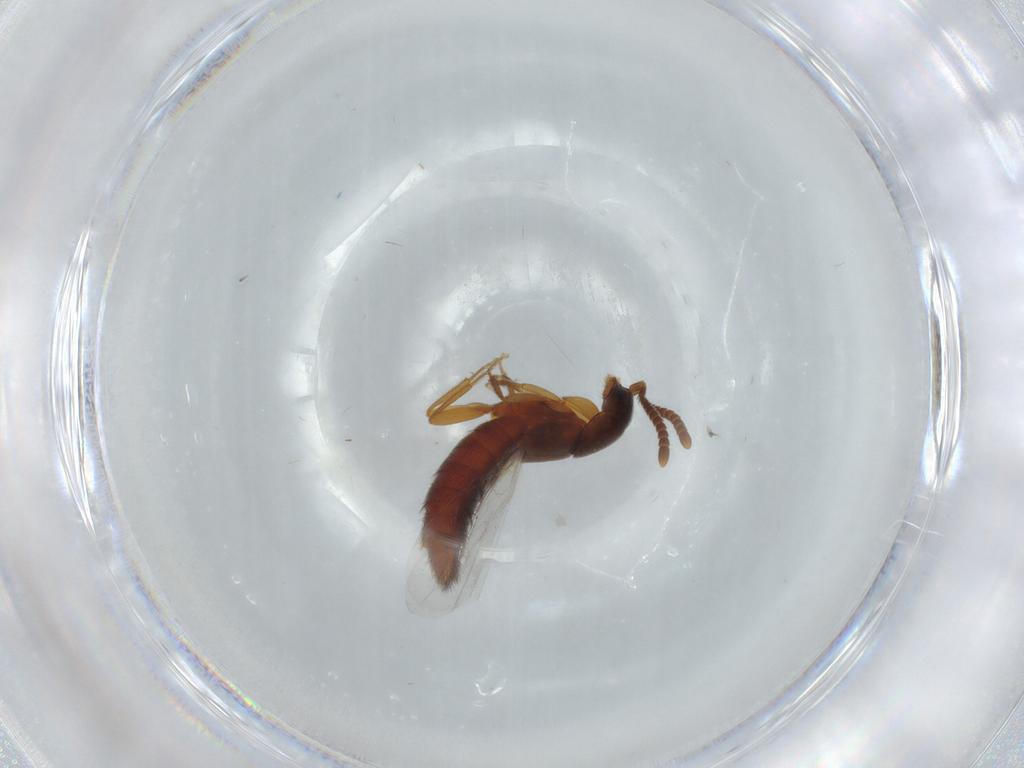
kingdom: Animalia
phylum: Arthropoda
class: Insecta
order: Coleoptera
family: Staphylinidae
